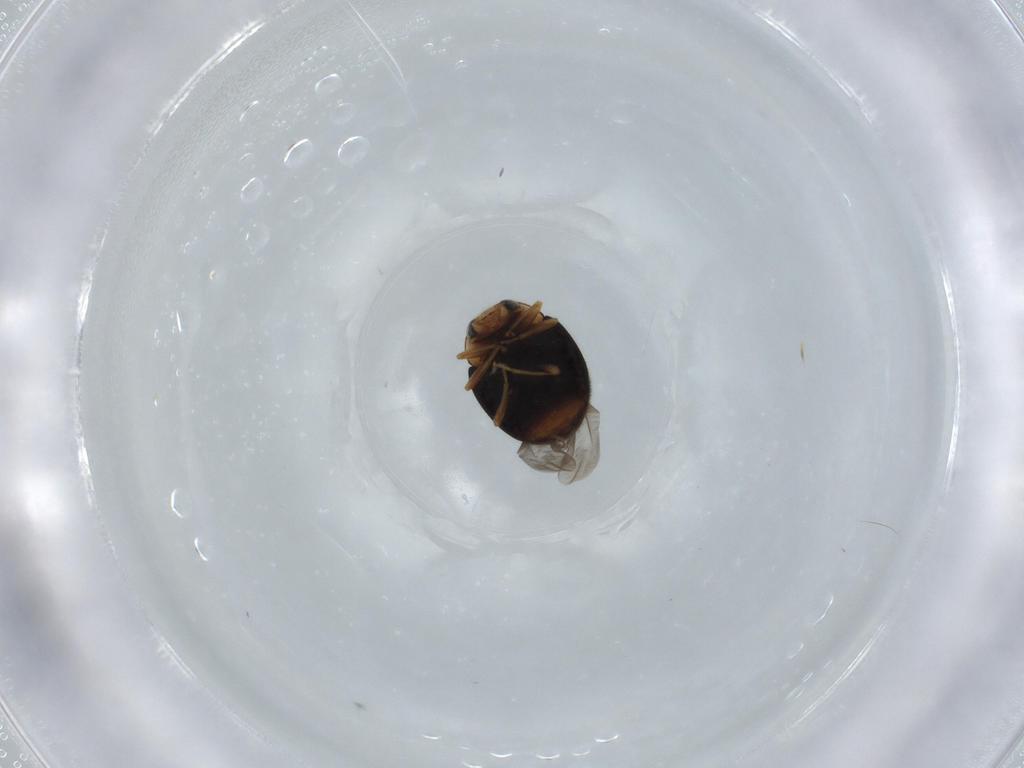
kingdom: Animalia
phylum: Arthropoda
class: Insecta
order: Coleoptera
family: Coccinellidae
